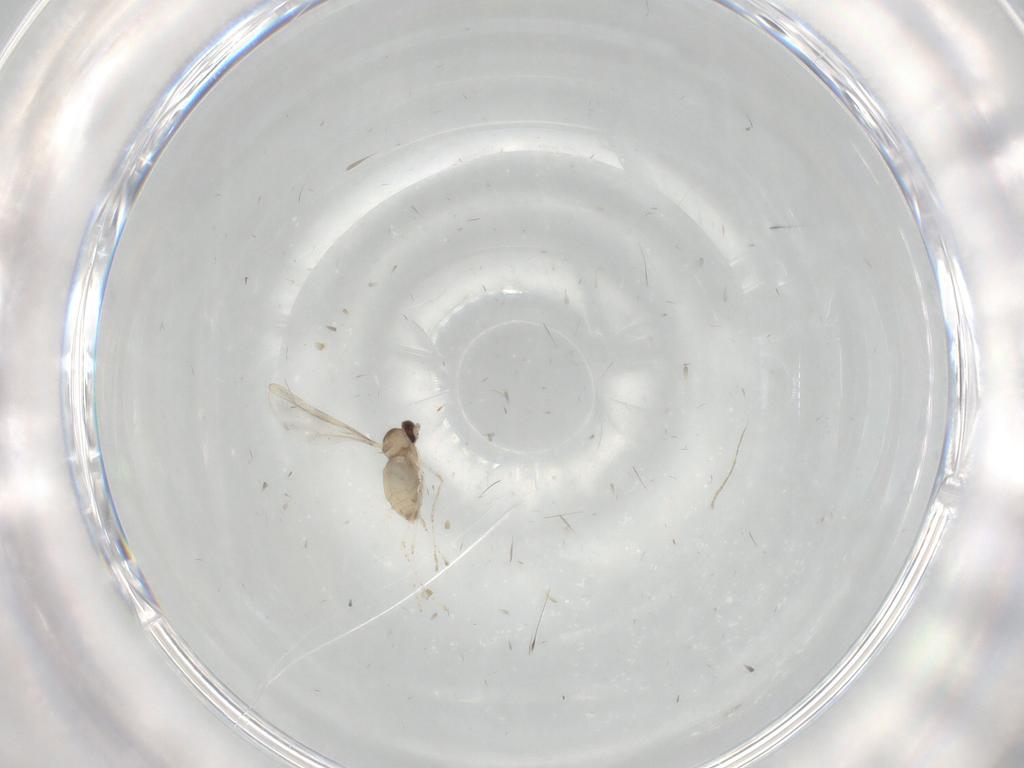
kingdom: Animalia
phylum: Arthropoda
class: Insecta
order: Diptera
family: Cecidomyiidae
